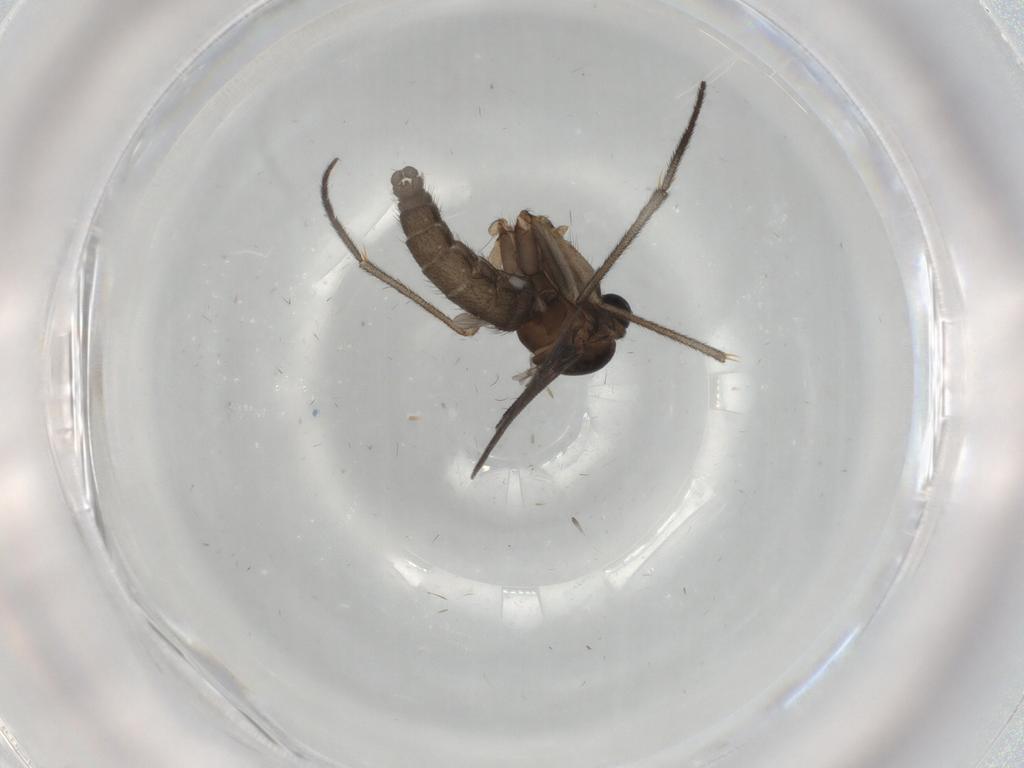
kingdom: Animalia
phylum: Arthropoda
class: Insecta
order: Diptera
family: Sciaridae
